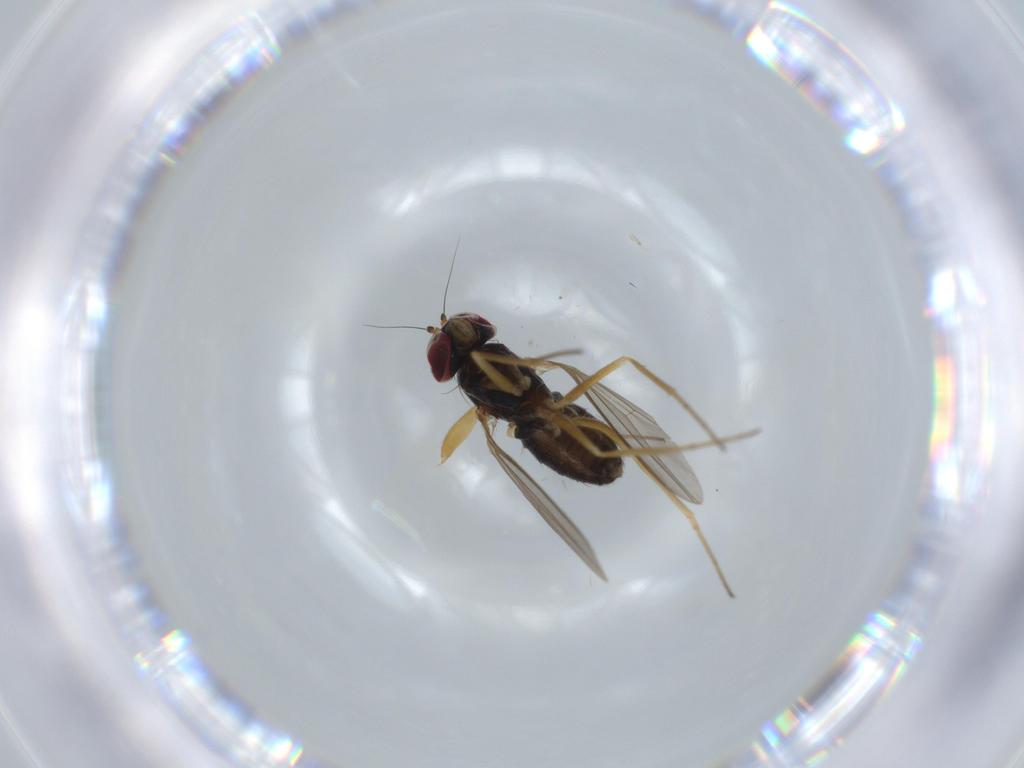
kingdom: Animalia
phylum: Arthropoda
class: Insecta
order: Diptera
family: Dolichopodidae
